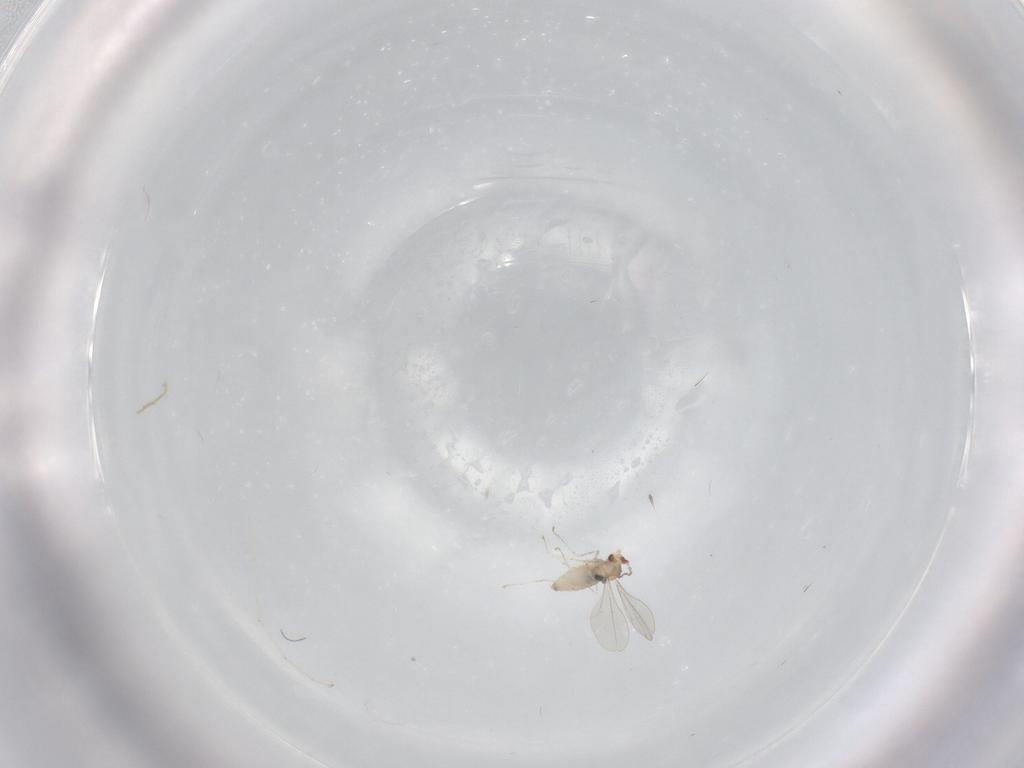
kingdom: Animalia
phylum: Arthropoda
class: Insecta
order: Diptera
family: Cecidomyiidae
